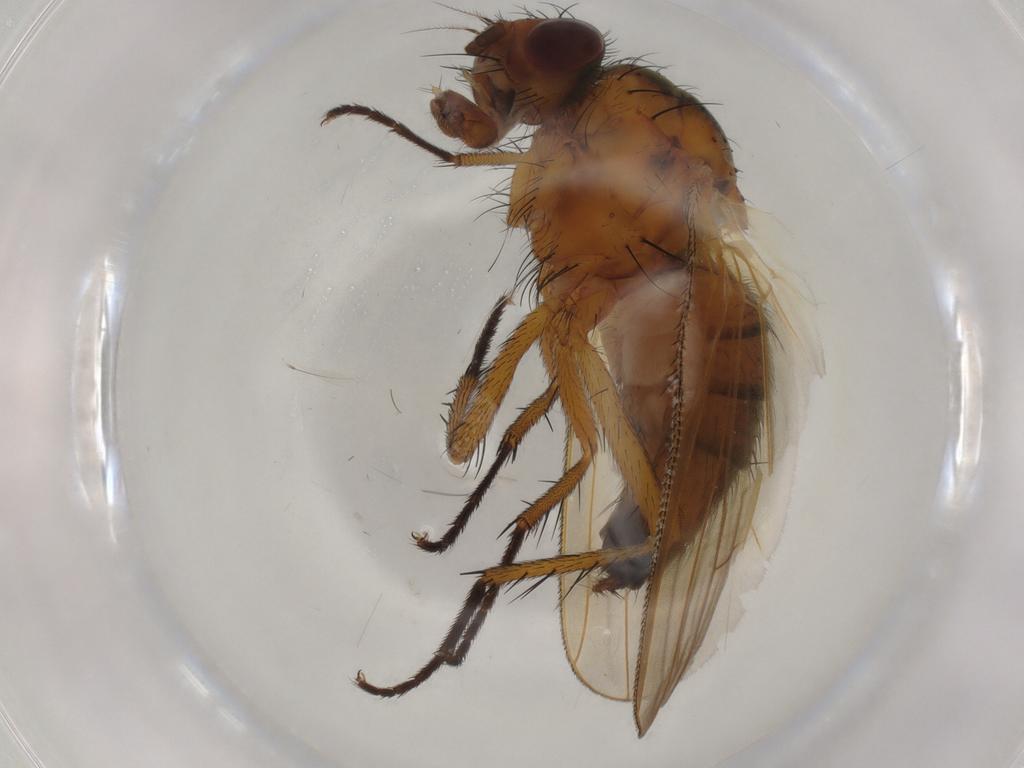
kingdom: Animalia
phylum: Arthropoda
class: Insecta
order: Diptera
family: Anthomyiidae
